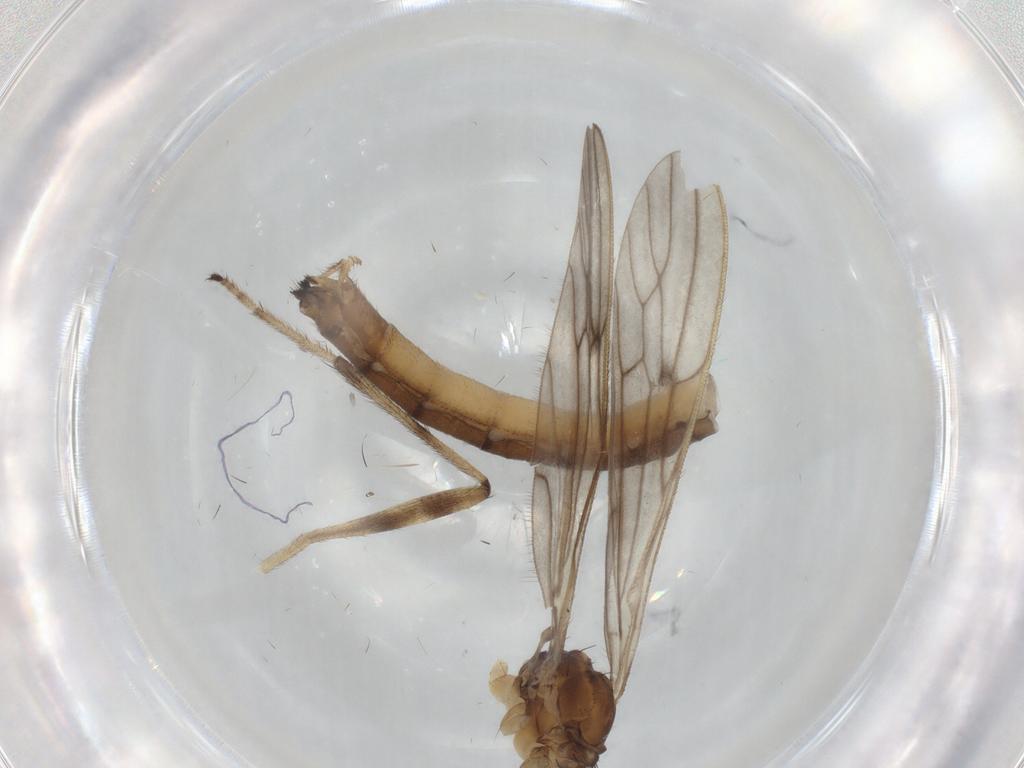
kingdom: Animalia
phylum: Arthropoda
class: Insecta
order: Diptera
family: Limoniidae
